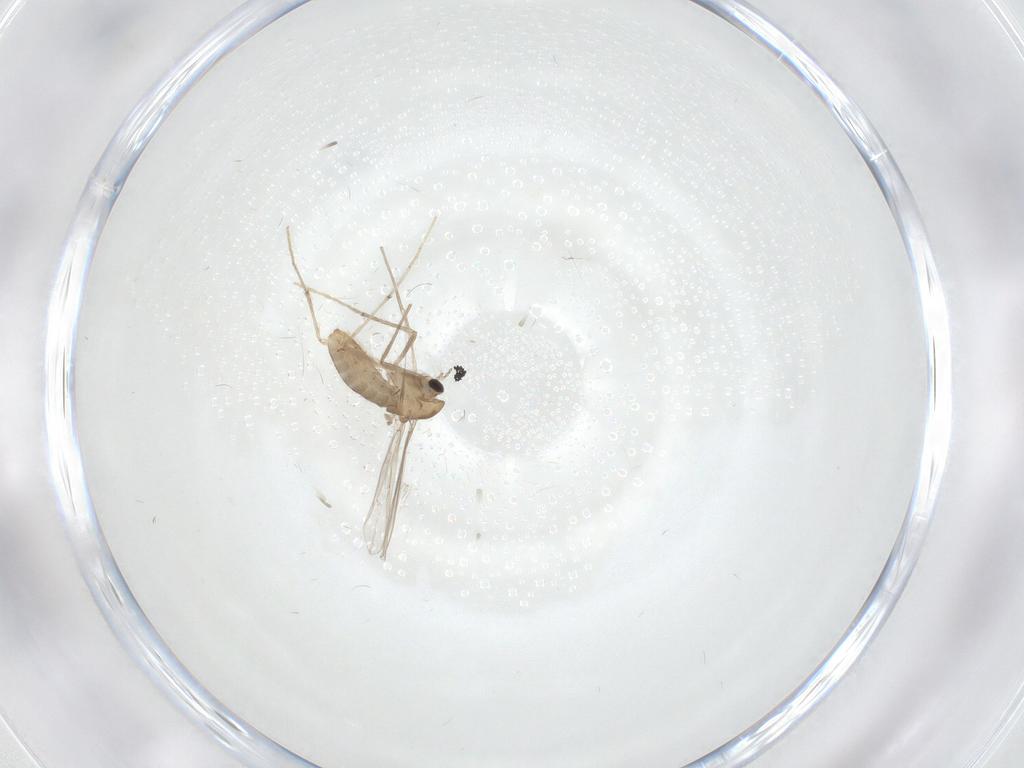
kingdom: Animalia
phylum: Arthropoda
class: Insecta
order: Diptera
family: Chironomidae
